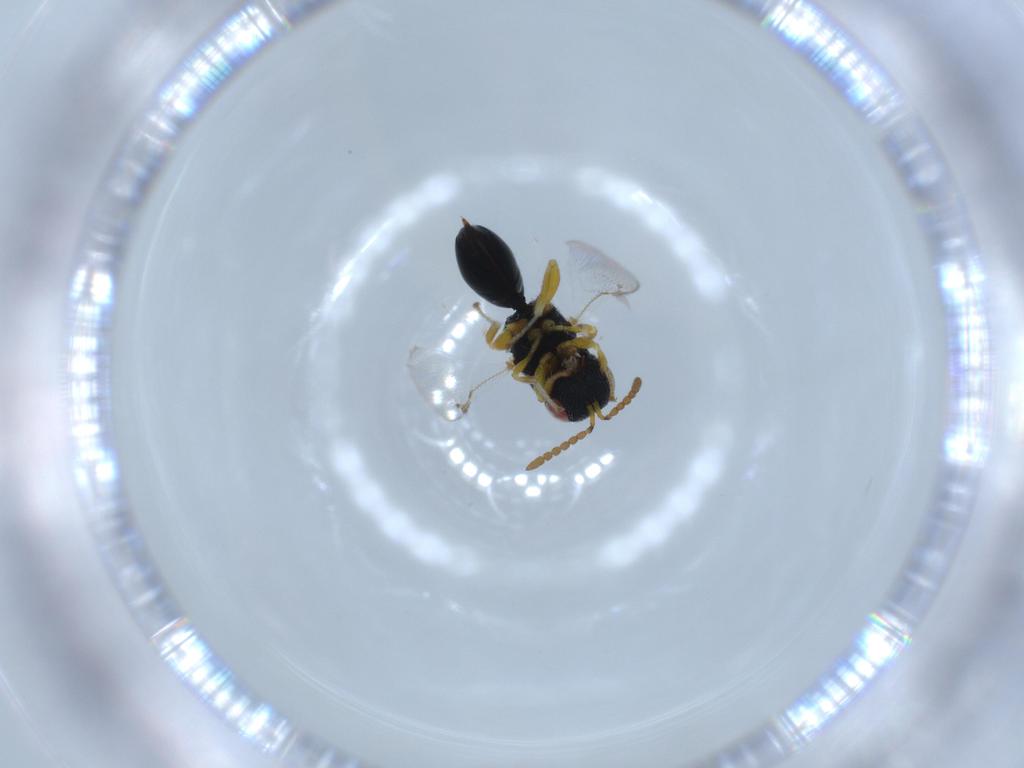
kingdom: Animalia
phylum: Arthropoda
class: Insecta
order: Hymenoptera
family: Eurytomidae
